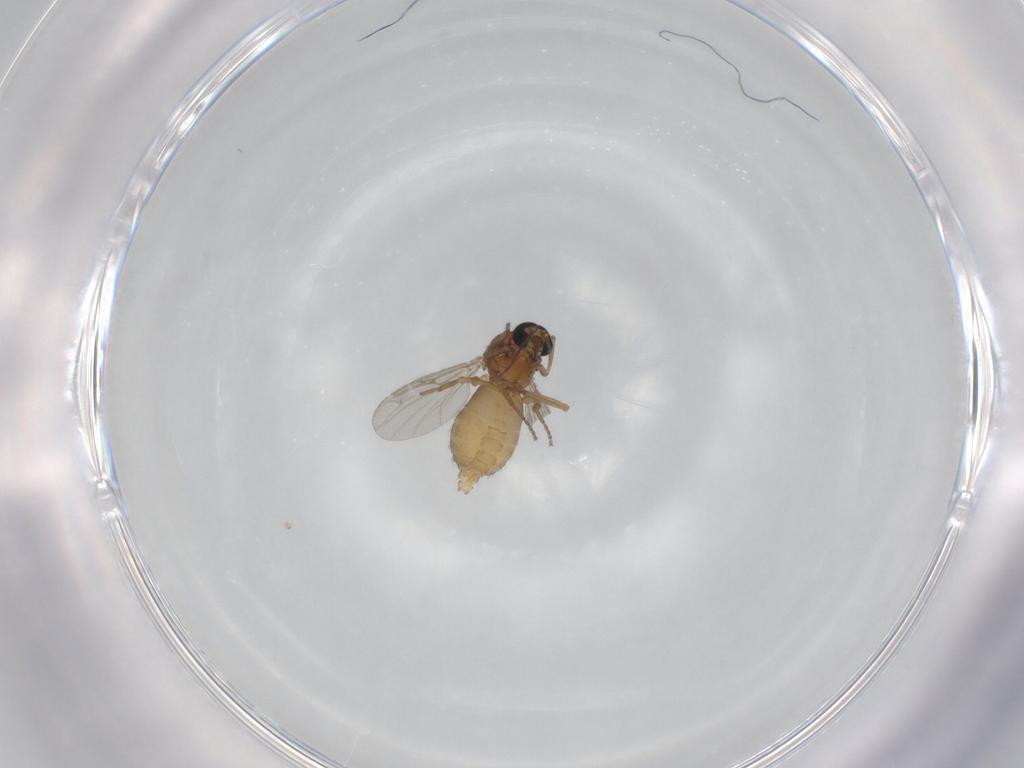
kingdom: Animalia
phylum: Arthropoda
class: Insecta
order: Diptera
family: Ceratopogonidae
